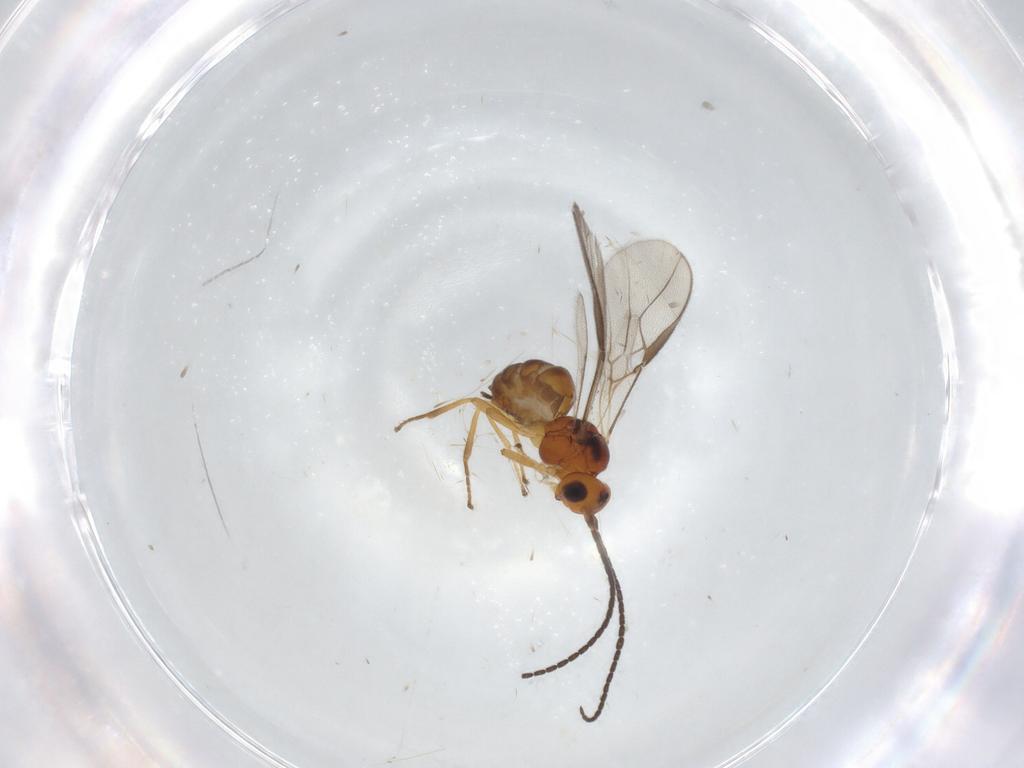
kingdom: Animalia
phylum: Arthropoda
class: Insecta
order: Hymenoptera
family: Braconidae
